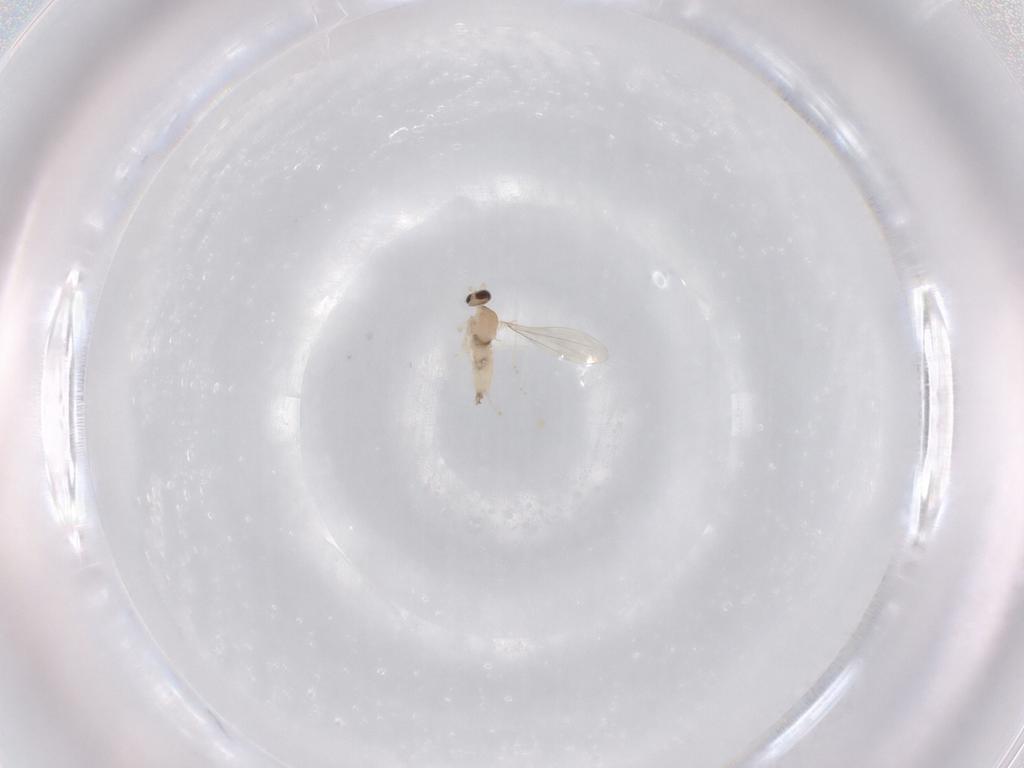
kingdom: Animalia
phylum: Arthropoda
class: Insecta
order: Diptera
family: Cecidomyiidae
